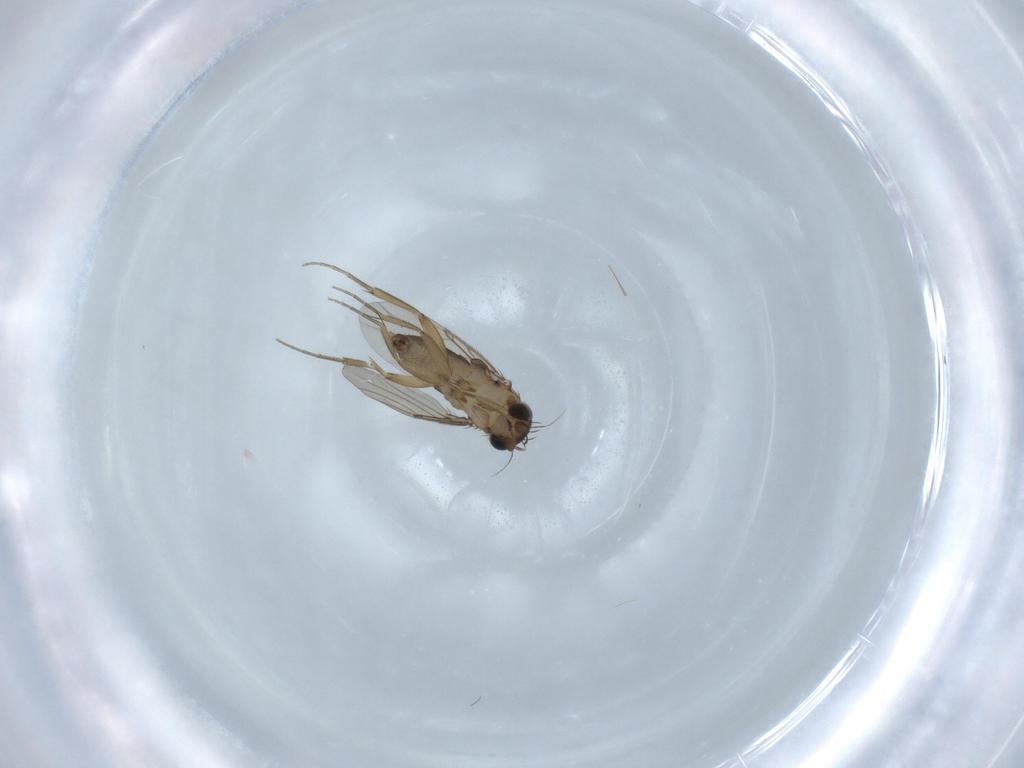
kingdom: Animalia
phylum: Arthropoda
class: Insecta
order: Diptera
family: Phoridae
